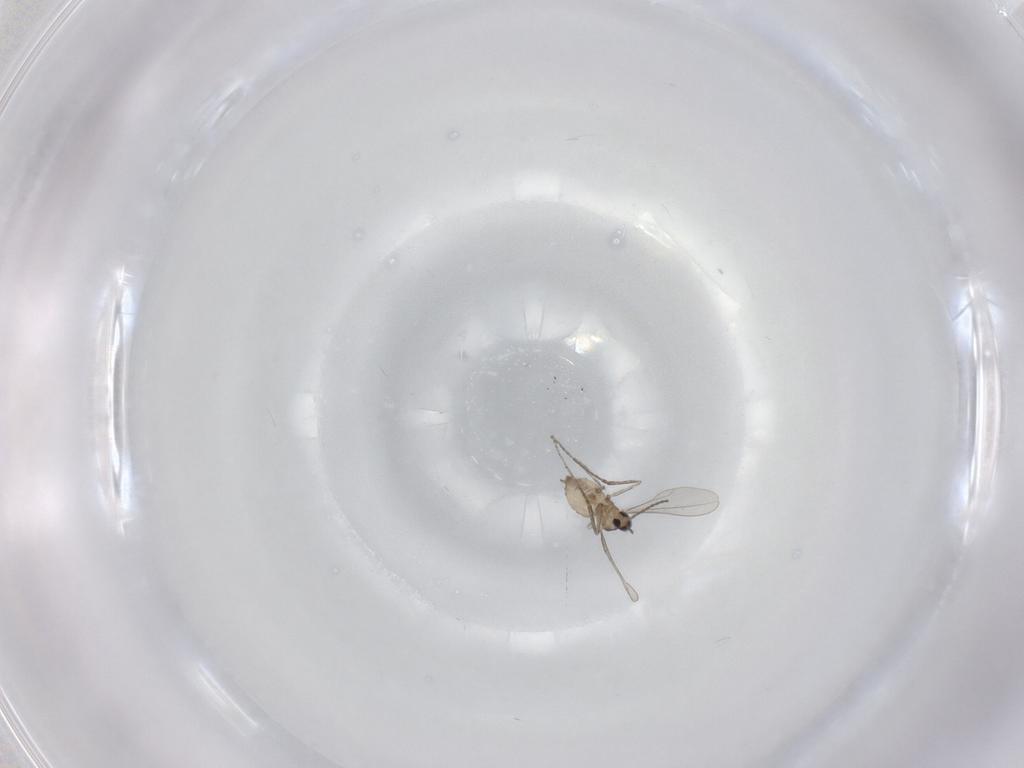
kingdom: Animalia
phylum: Arthropoda
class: Insecta
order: Diptera
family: Cecidomyiidae
